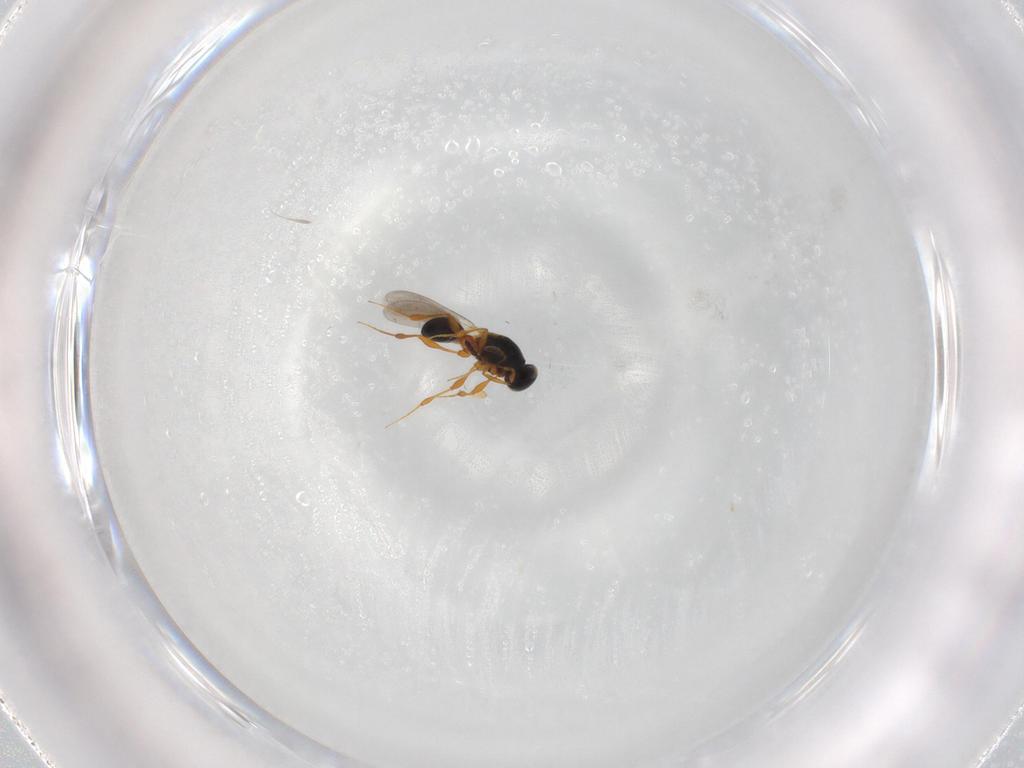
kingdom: Animalia
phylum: Arthropoda
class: Insecta
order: Hymenoptera
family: Platygastridae
